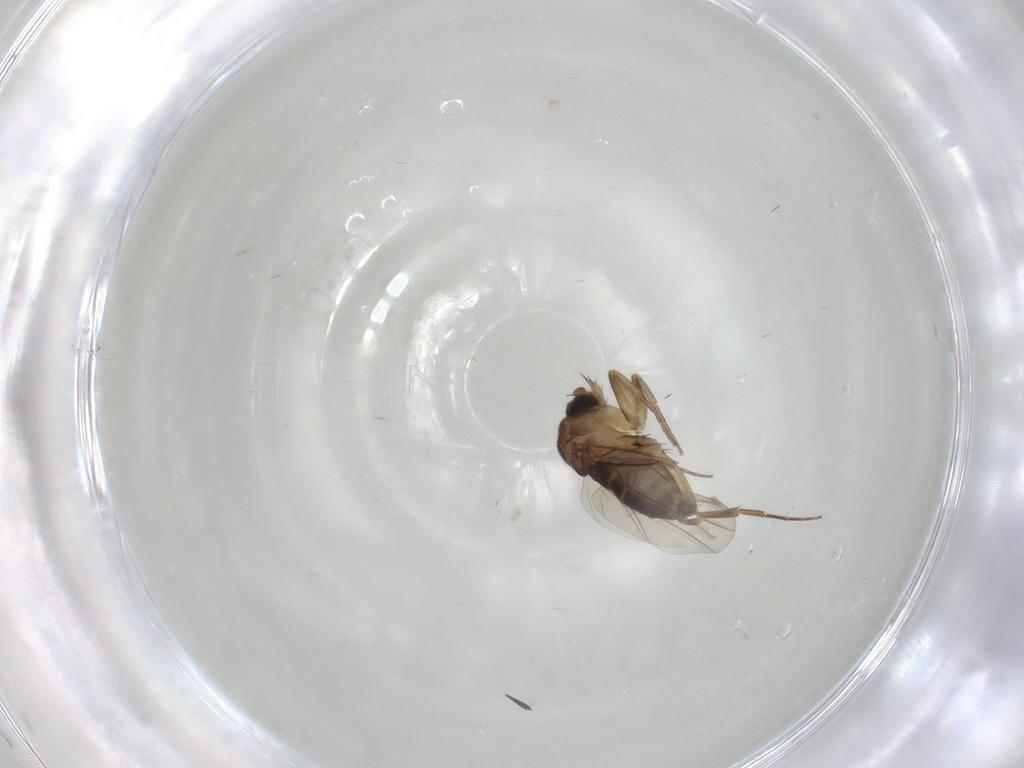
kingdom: Animalia
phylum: Arthropoda
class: Insecta
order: Diptera
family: Phoridae
